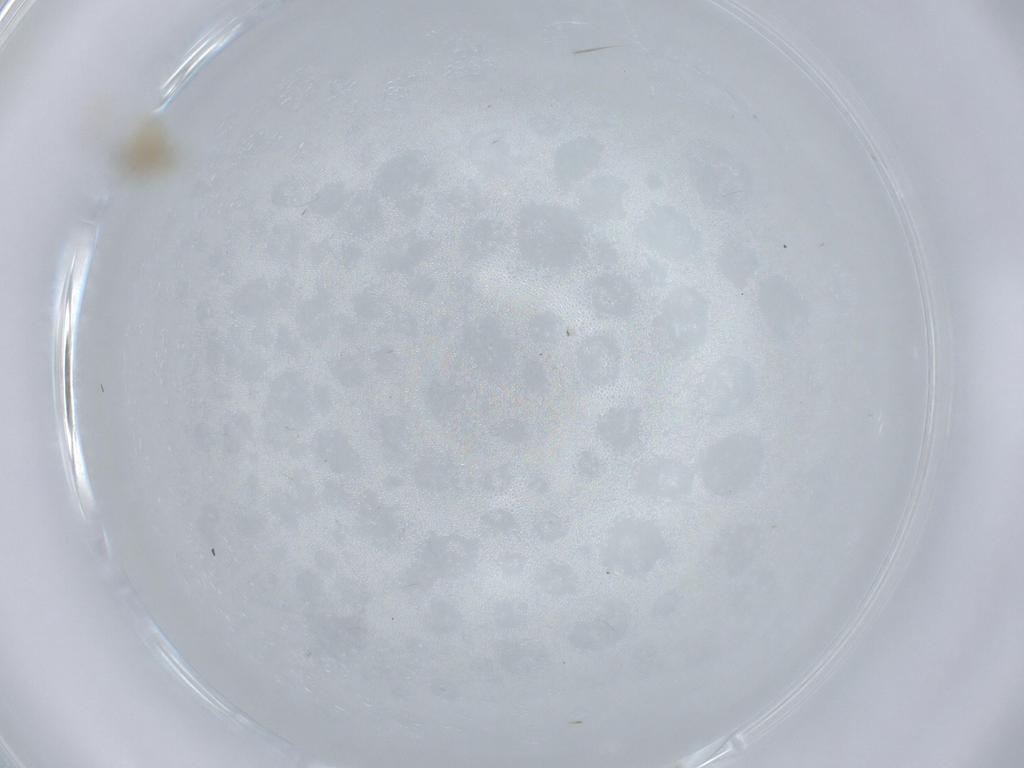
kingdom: Animalia
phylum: Arthropoda
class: Insecta
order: Diptera
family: Chironomidae
